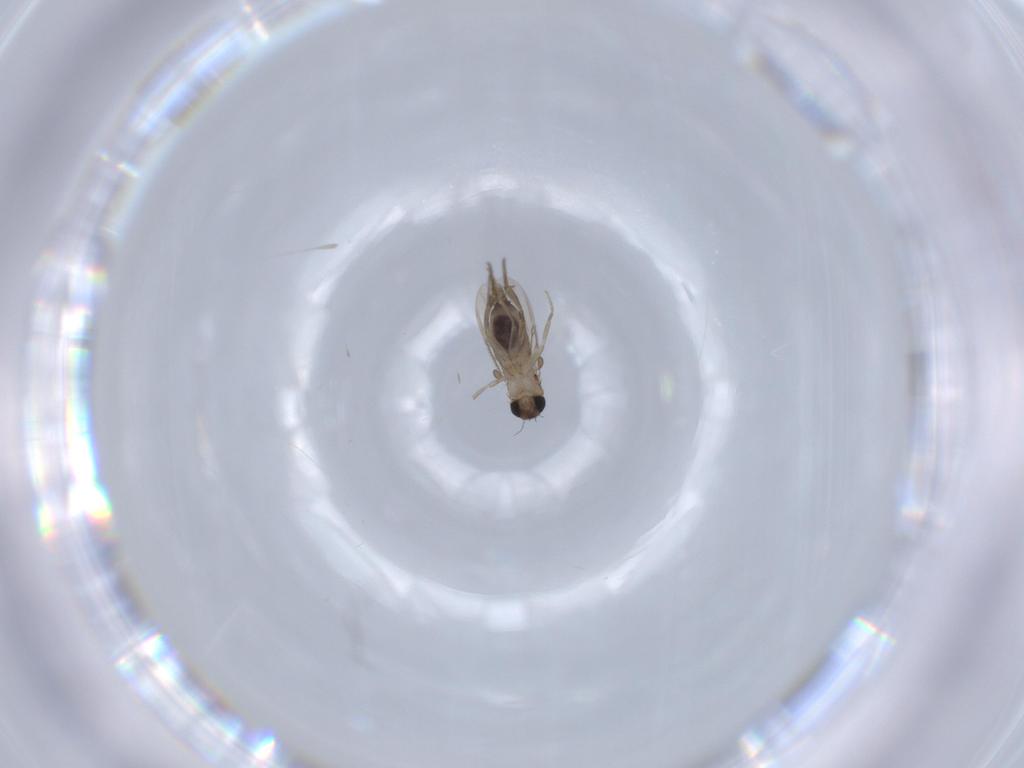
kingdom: Animalia
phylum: Arthropoda
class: Insecta
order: Diptera
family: Phoridae
